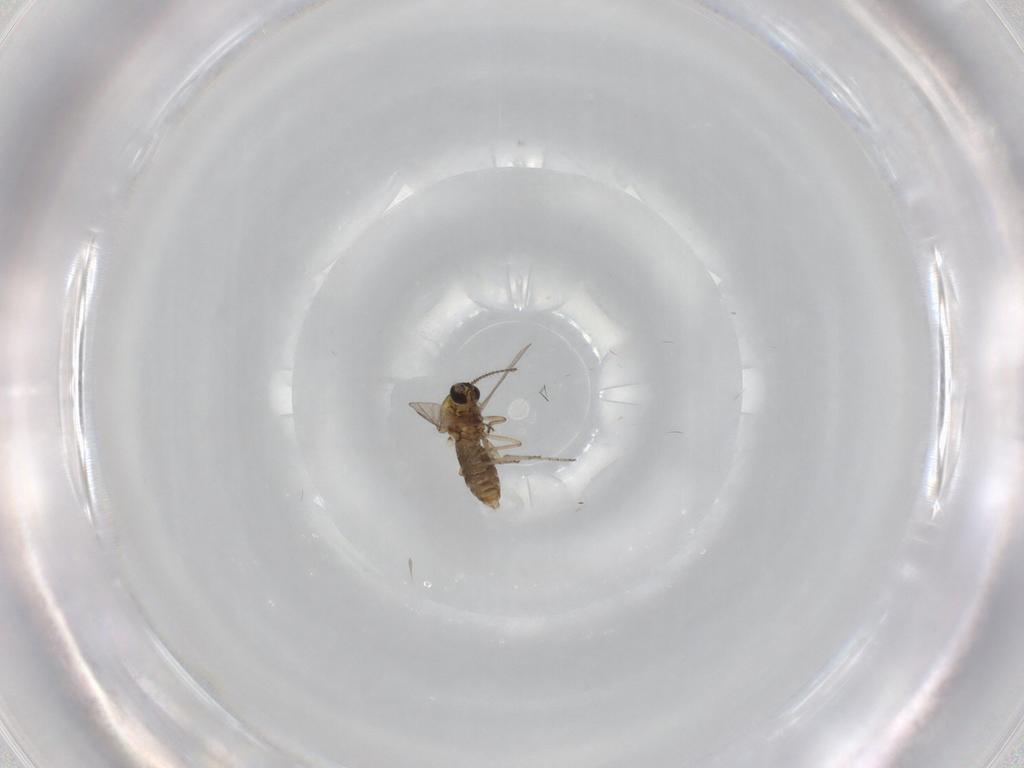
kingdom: Animalia
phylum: Arthropoda
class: Insecta
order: Diptera
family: Ceratopogonidae
